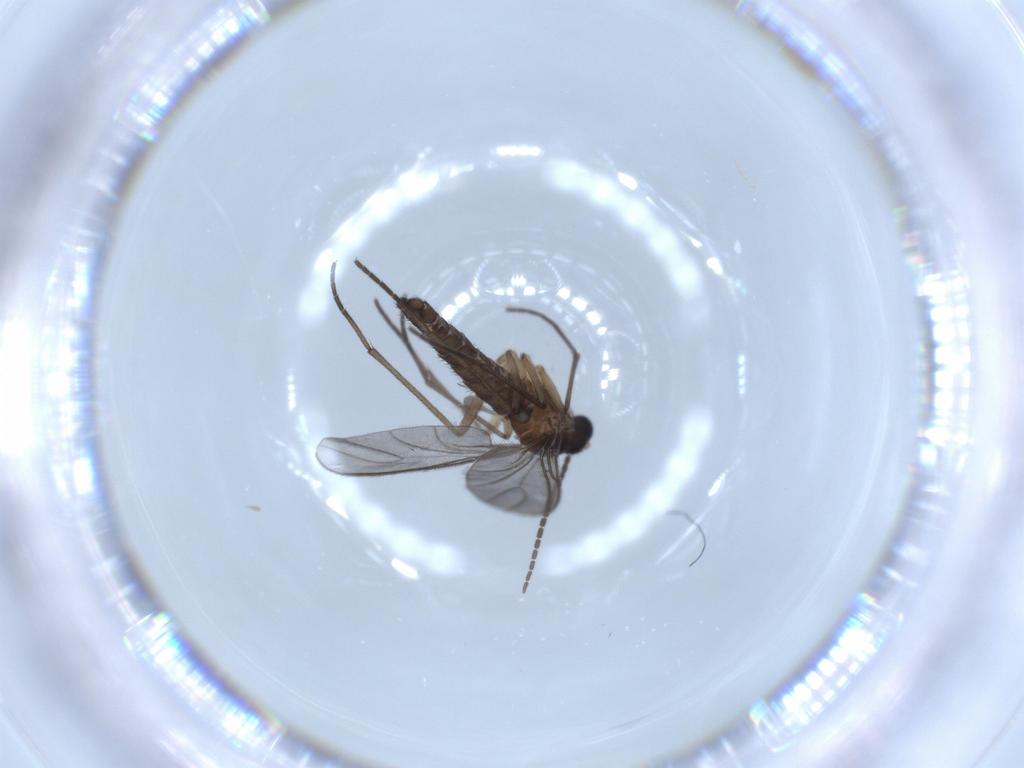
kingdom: Animalia
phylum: Arthropoda
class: Insecta
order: Diptera
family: Sciaridae
